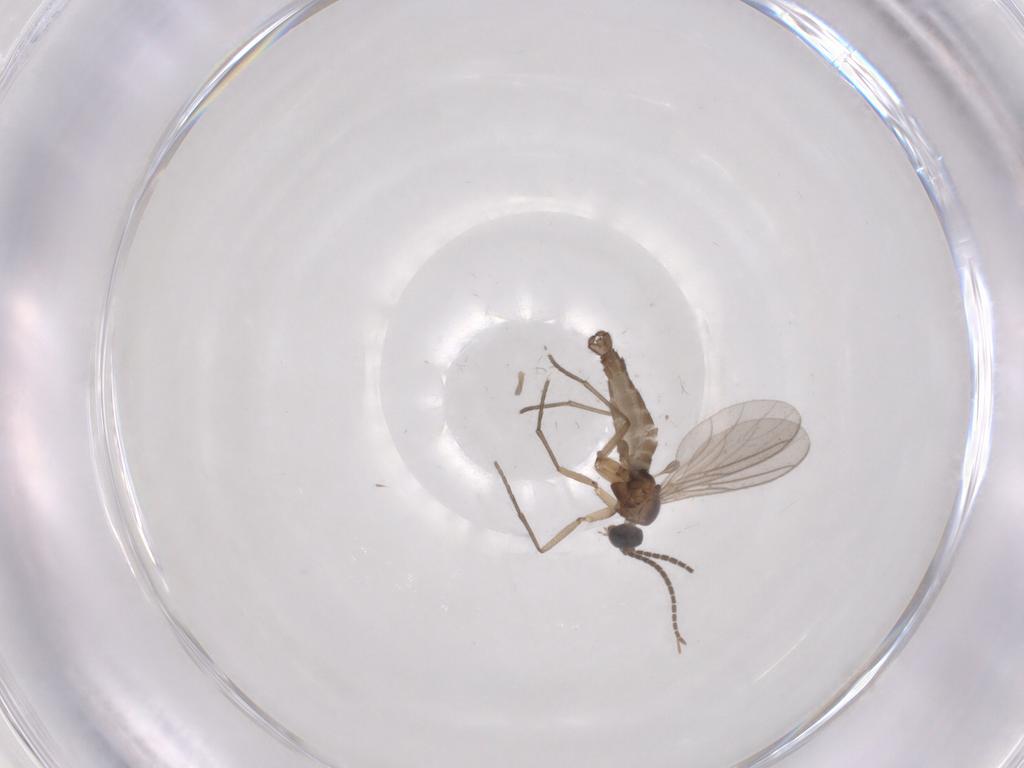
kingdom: Animalia
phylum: Arthropoda
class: Insecta
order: Diptera
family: Sciaridae
